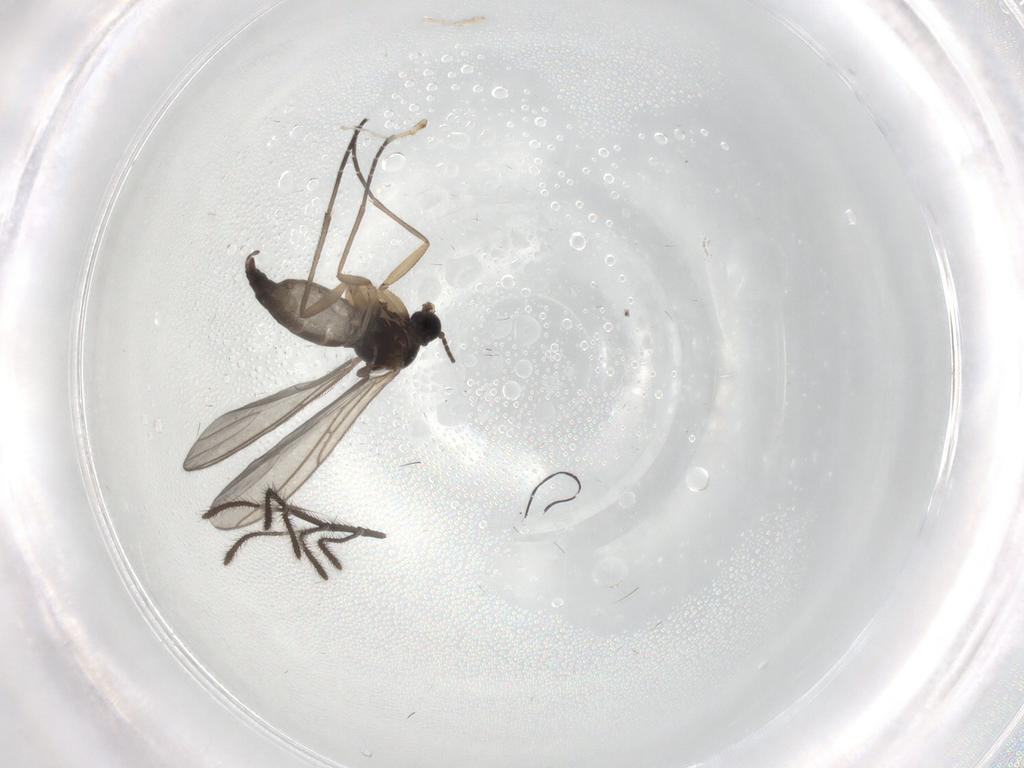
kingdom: Animalia
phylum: Arthropoda
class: Insecta
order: Diptera
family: Sciaridae
